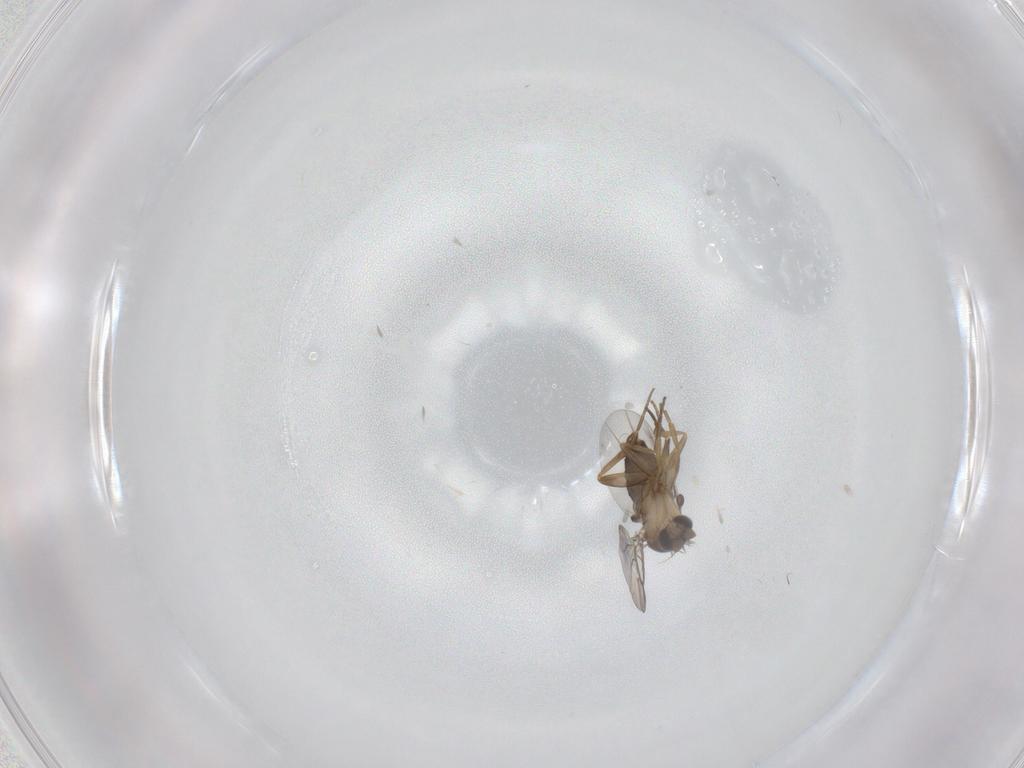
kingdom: Animalia
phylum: Arthropoda
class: Insecta
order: Diptera
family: Phoridae
